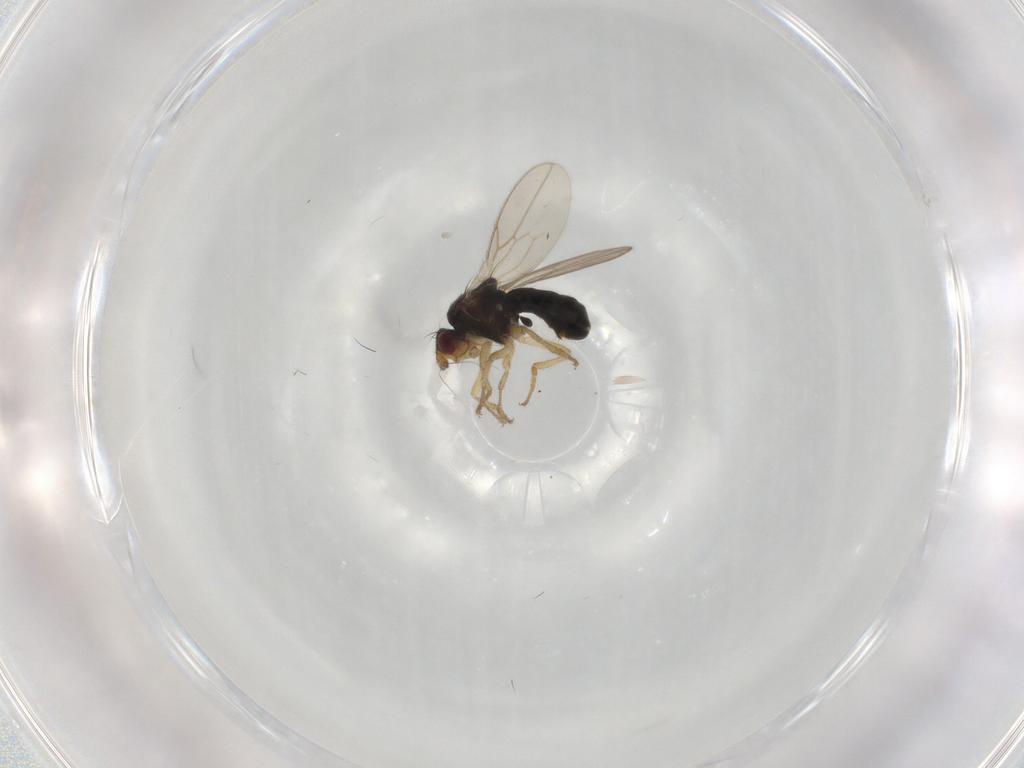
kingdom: Animalia
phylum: Arthropoda
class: Insecta
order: Diptera
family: Sphaeroceridae
